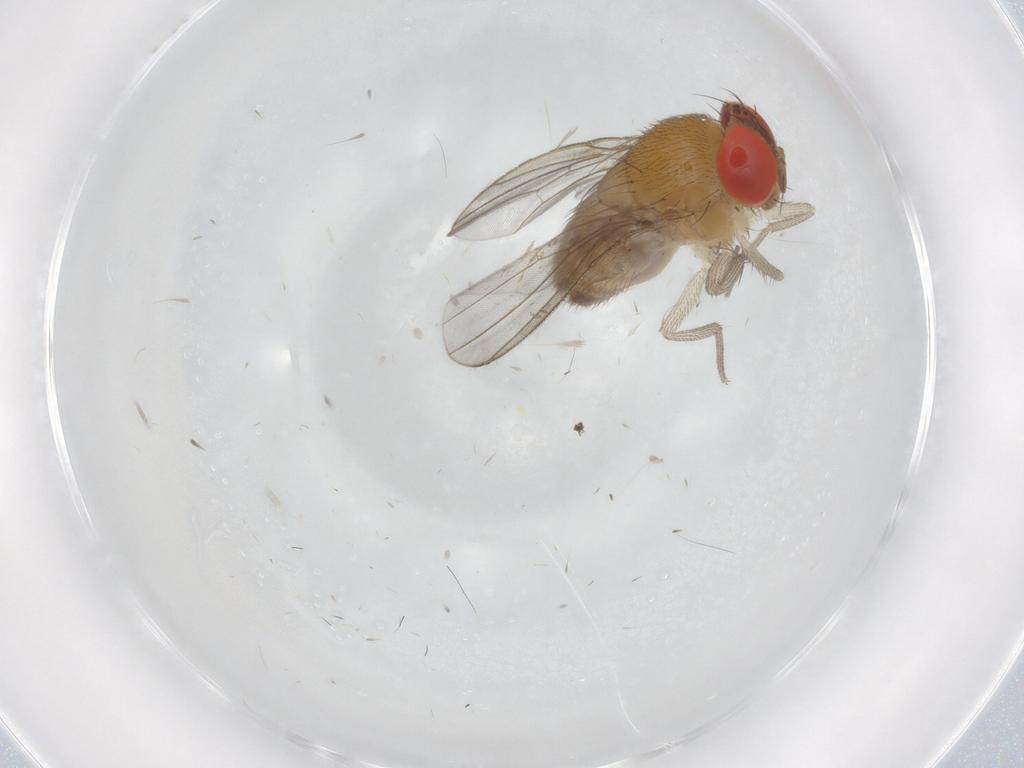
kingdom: Animalia
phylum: Arthropoda
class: Insecta
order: Diptera
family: Drosophilidae
